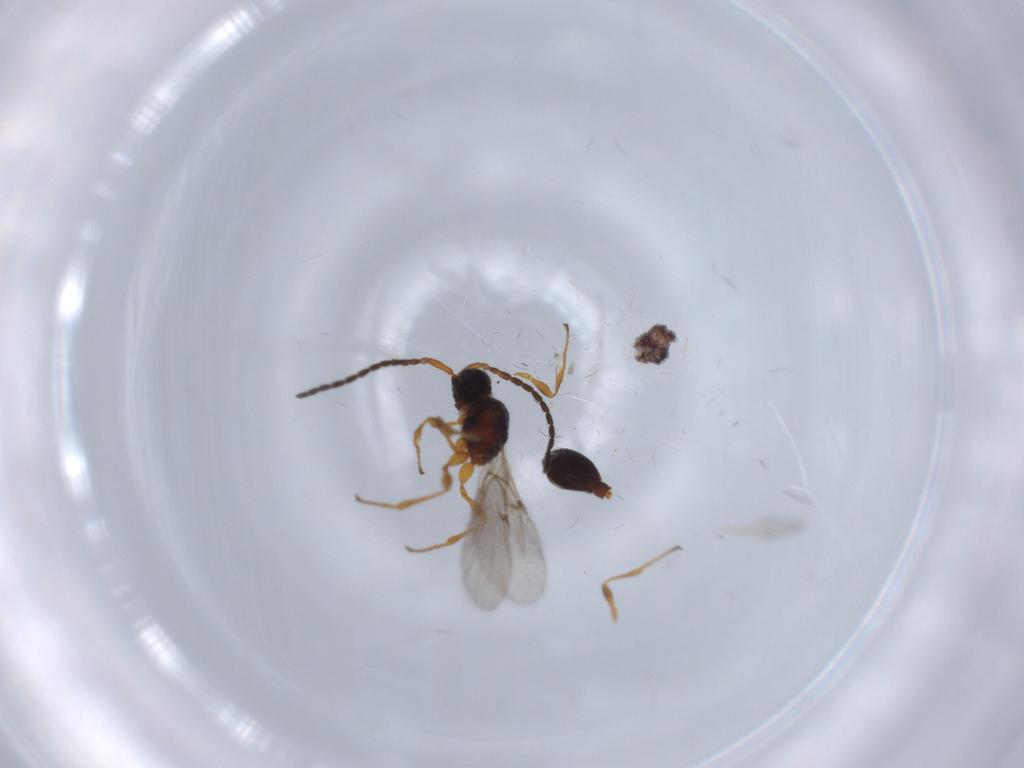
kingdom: Animalia
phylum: Arthropoda
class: Insecta
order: Hymenoptera
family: Diapriidae
